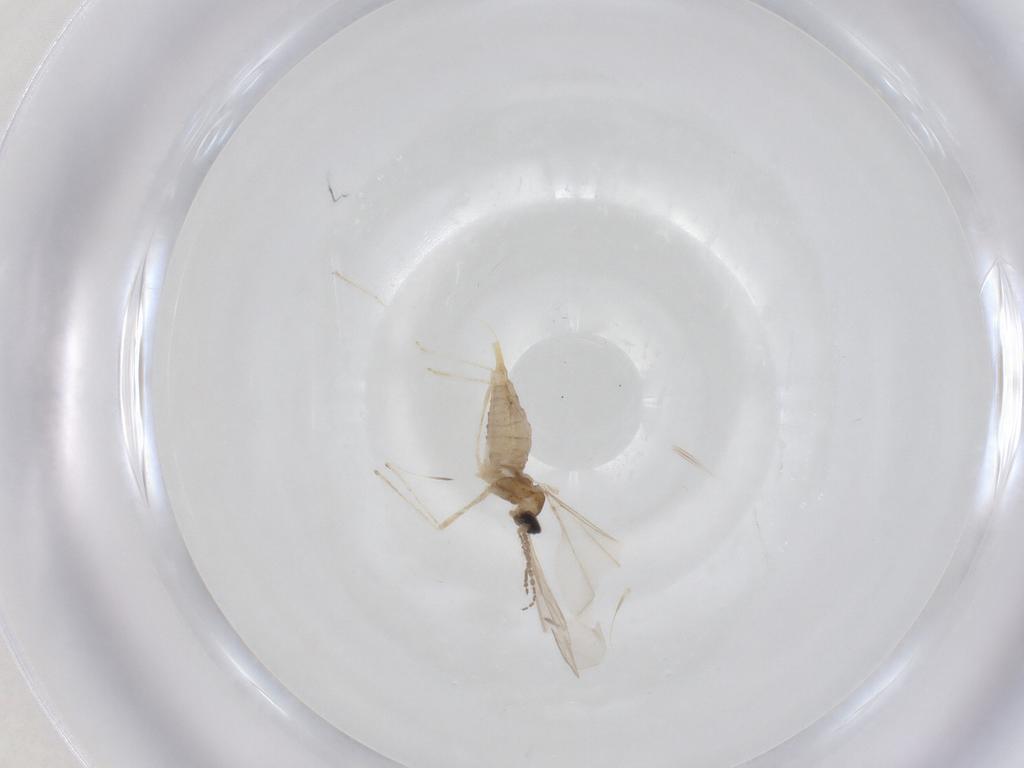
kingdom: Animalia
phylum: Arthropoda
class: Insecta
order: Diptera
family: Cecidomyiidae
